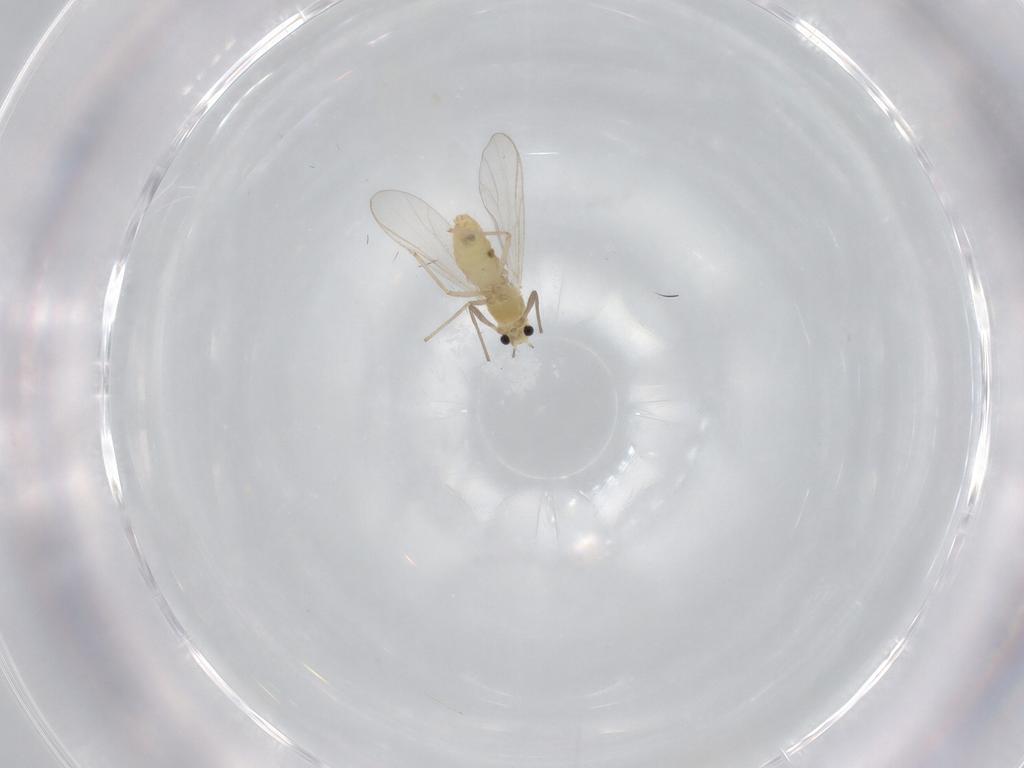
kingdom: Animalia
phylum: Arthropoda
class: Insecta
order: Diptera
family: Chironomidae
